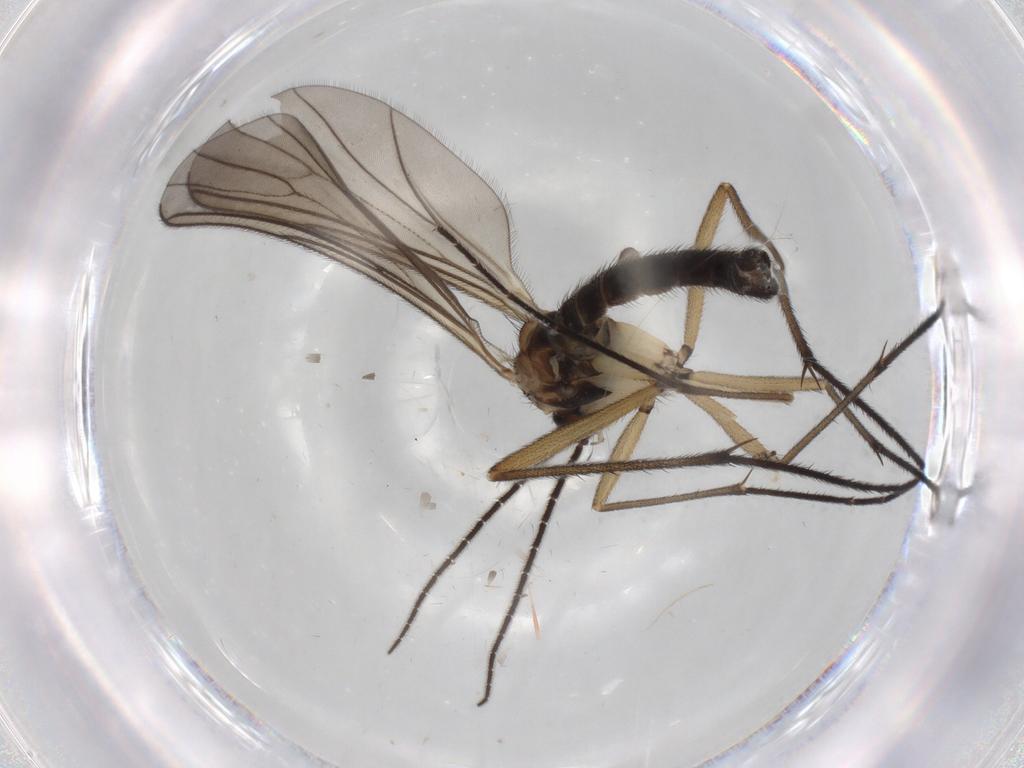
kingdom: Animalia
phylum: Arthropoda
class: Insecta
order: Diptera
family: Sciaridae
